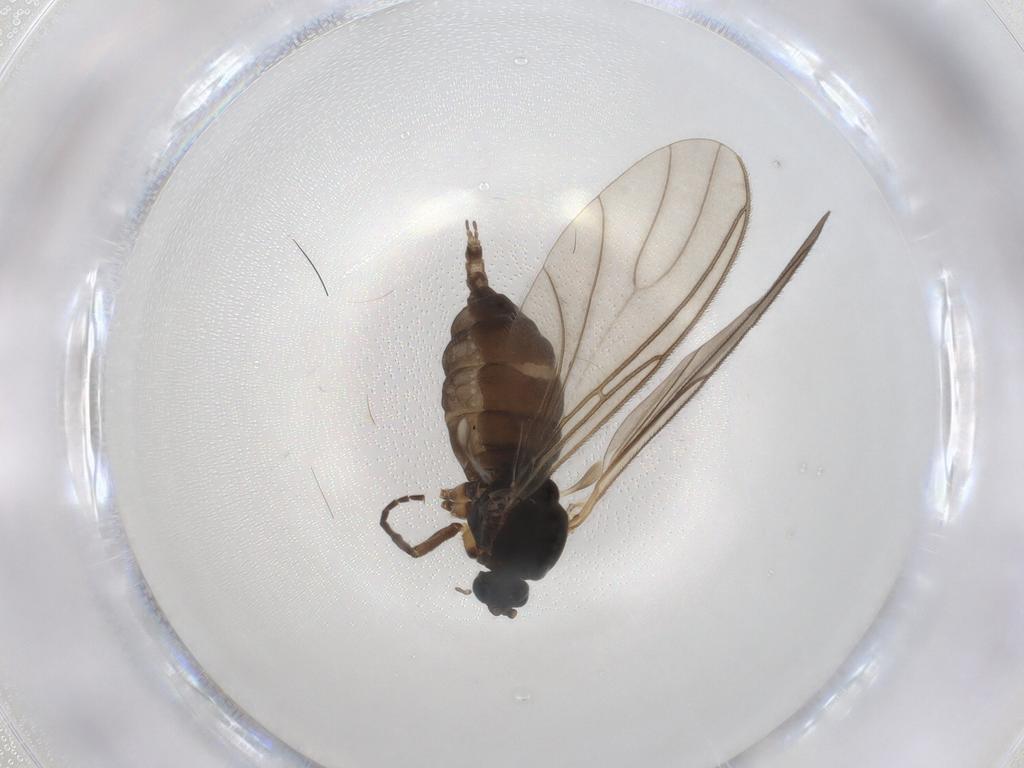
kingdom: Animalia
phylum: Arthropoda
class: Insecta
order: Diptera
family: Sciaridae
